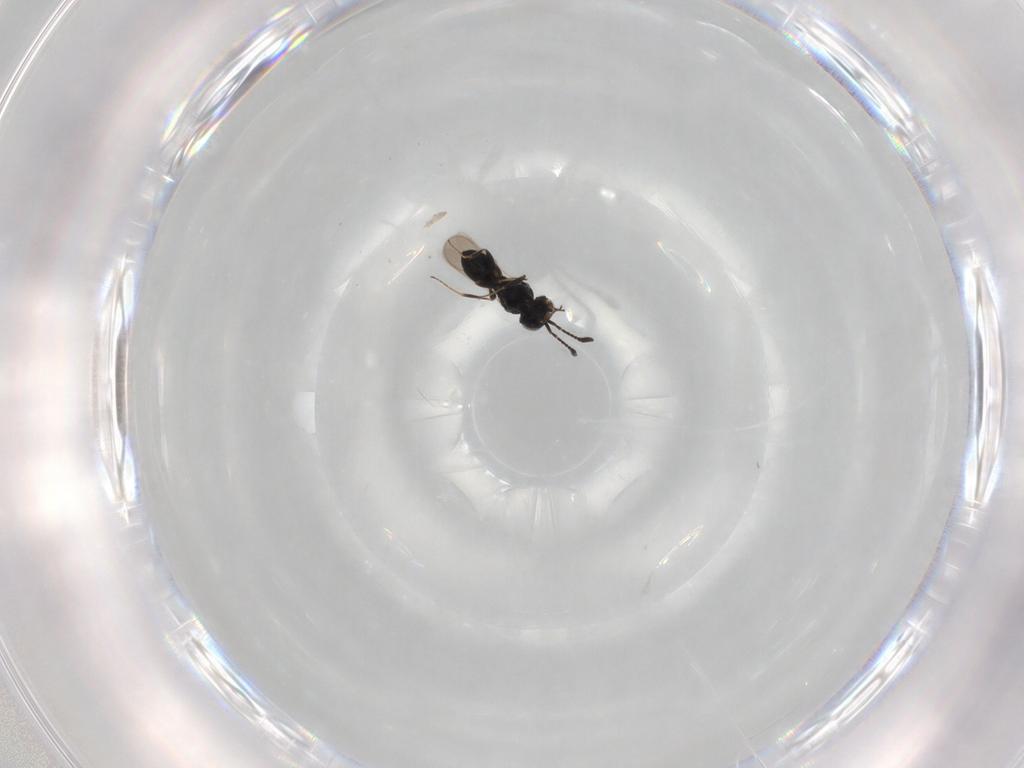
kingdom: Animalia
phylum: Arthropoda
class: Insecta
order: Hymenoptera
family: Scelionidae
